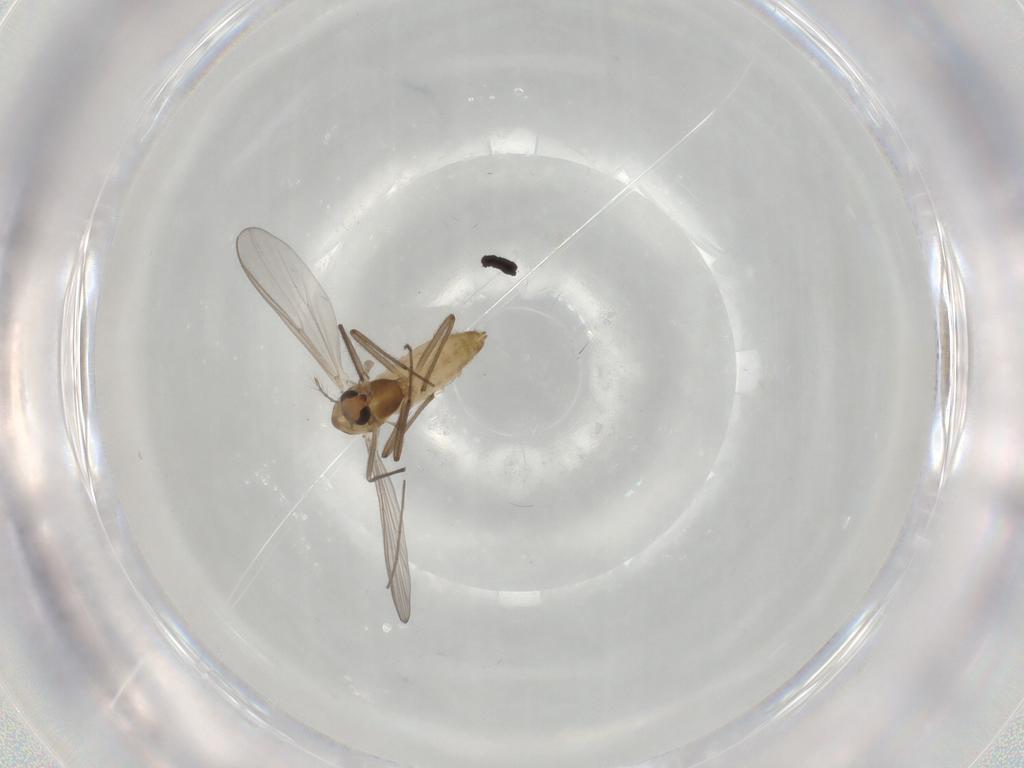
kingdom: Animalia
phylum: Arthropoda
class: Insecta
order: Diptera
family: Chironomidae
